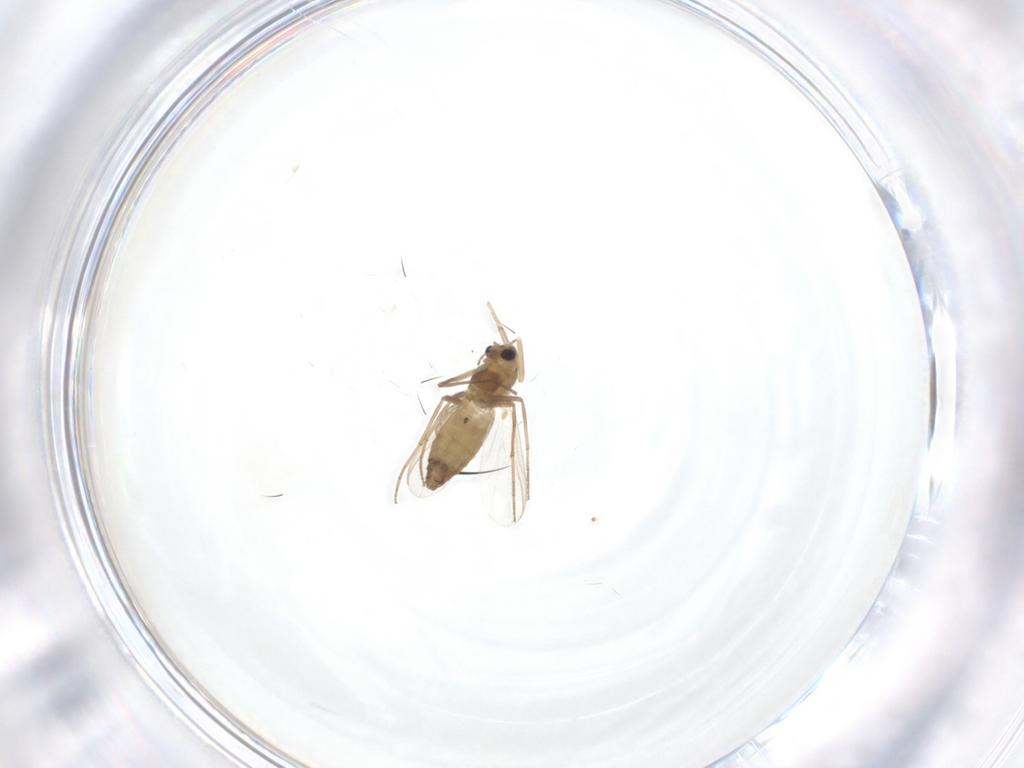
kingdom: Animalia
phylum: Arthropoda
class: Insecta
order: Diptera
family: Psychodidae
